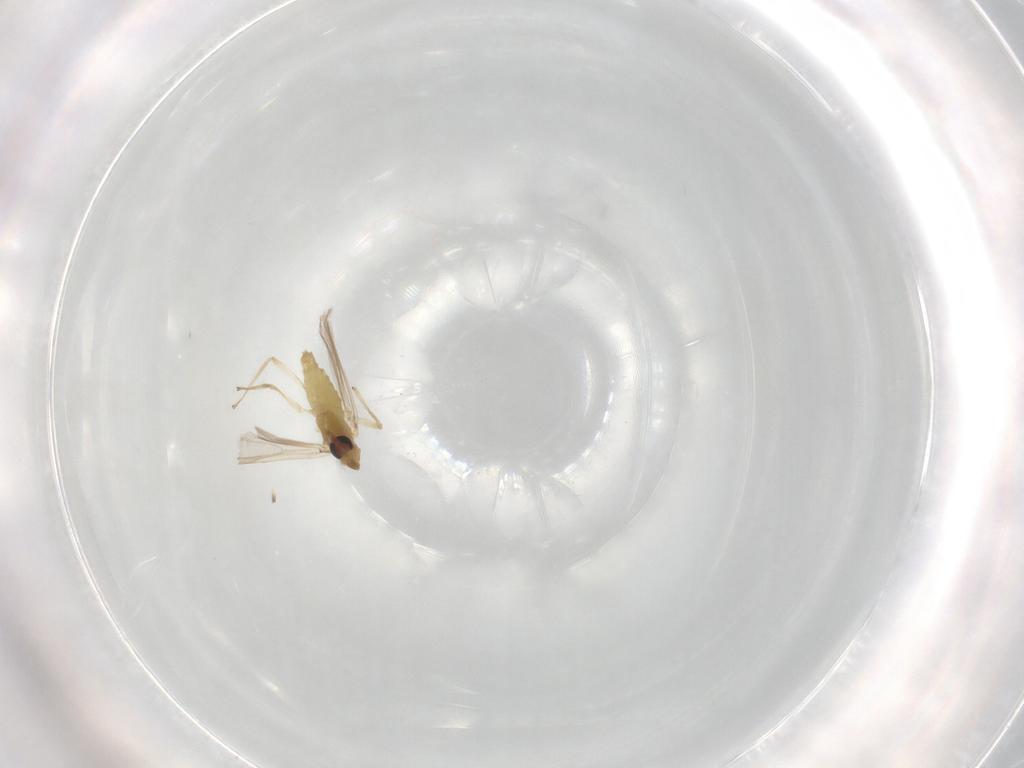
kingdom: Animalia
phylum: Arthropoda
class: Insecta
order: Diptera
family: Chironomidae
